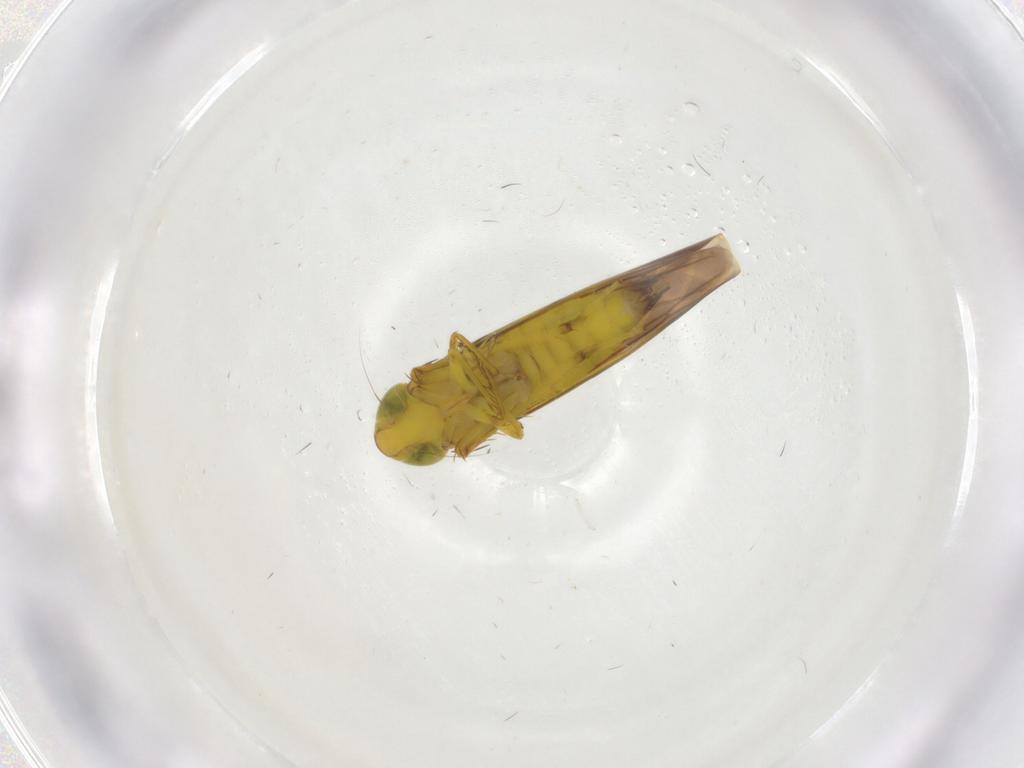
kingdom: Animalia
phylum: Arthropoda
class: Insecta
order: Hemiptera
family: Cicadellidae
